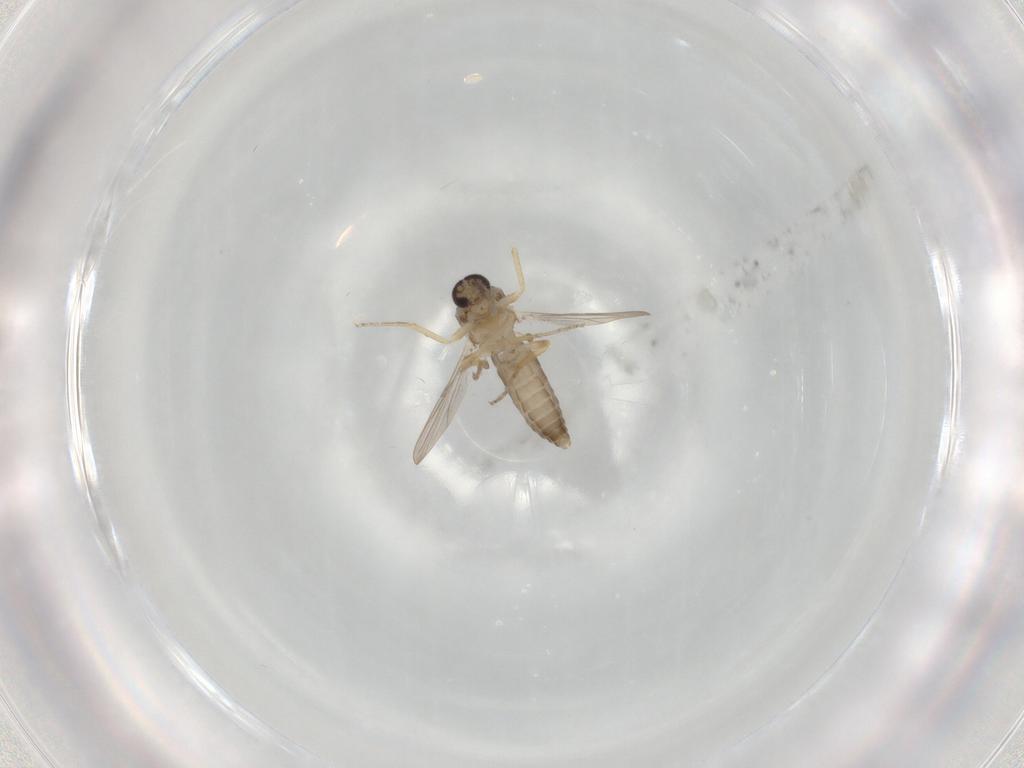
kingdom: Animalia
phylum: Arthropoda
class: Insecta
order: Diptera
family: Ceratopogonidae
